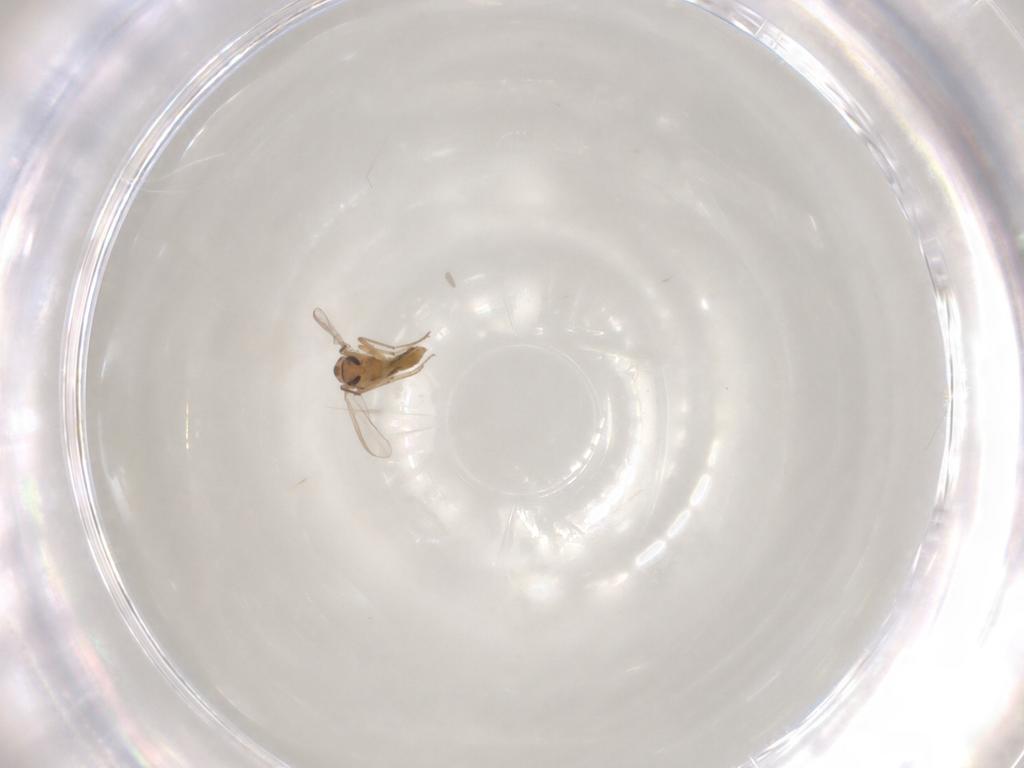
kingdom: Animalia
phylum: Arthropoda
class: Insecta
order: Diptera
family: Chironomidae
